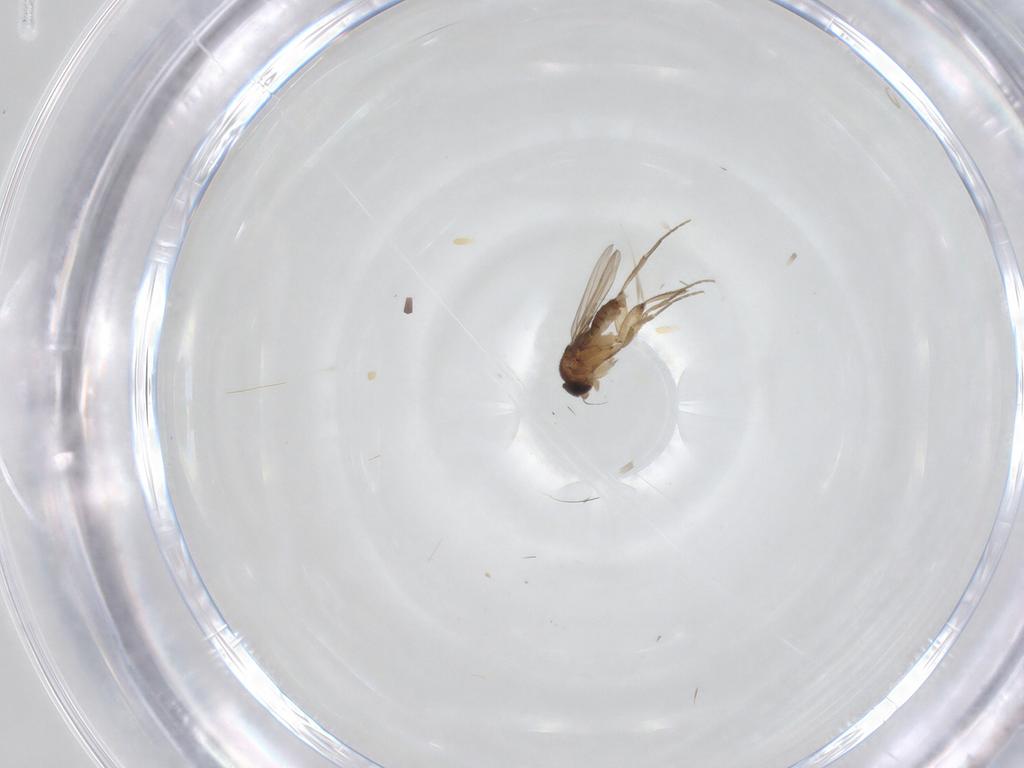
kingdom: Animalia
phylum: Arthropoda
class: Insecta
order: Diptera
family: Phoridae
